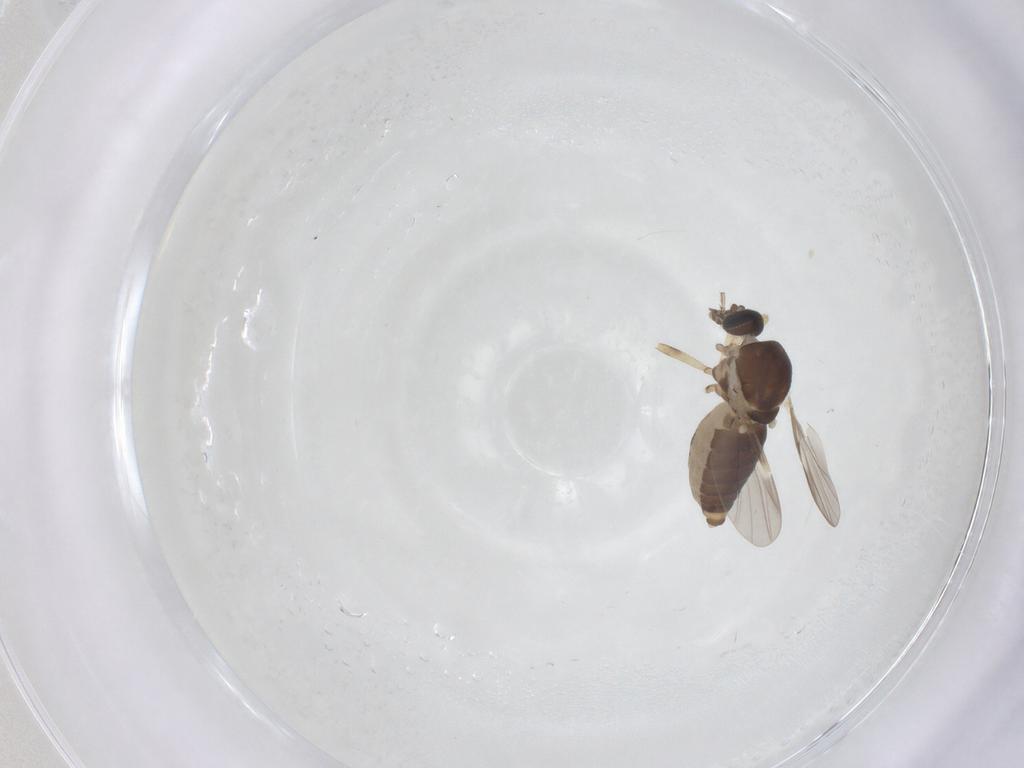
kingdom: Animalia
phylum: Arthropoda
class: Insecta
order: Diptera
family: Ceratopogonidae
